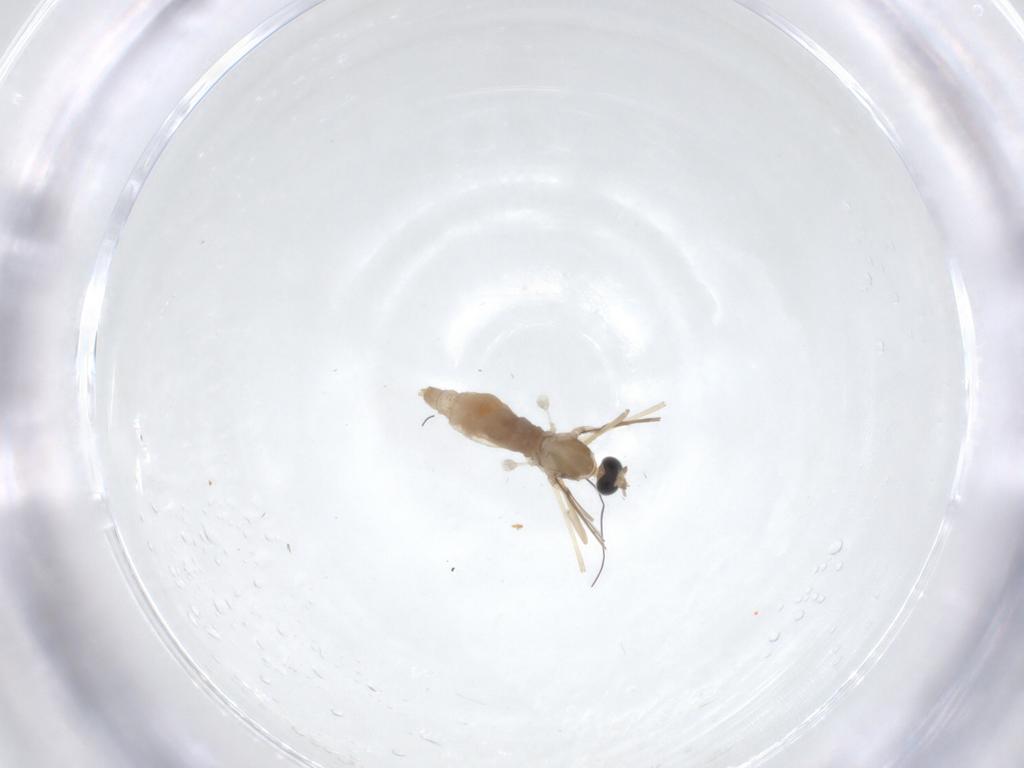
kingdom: Animalia
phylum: Arthropoda
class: Insecta
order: Diptera
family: Cecidomyiidae
